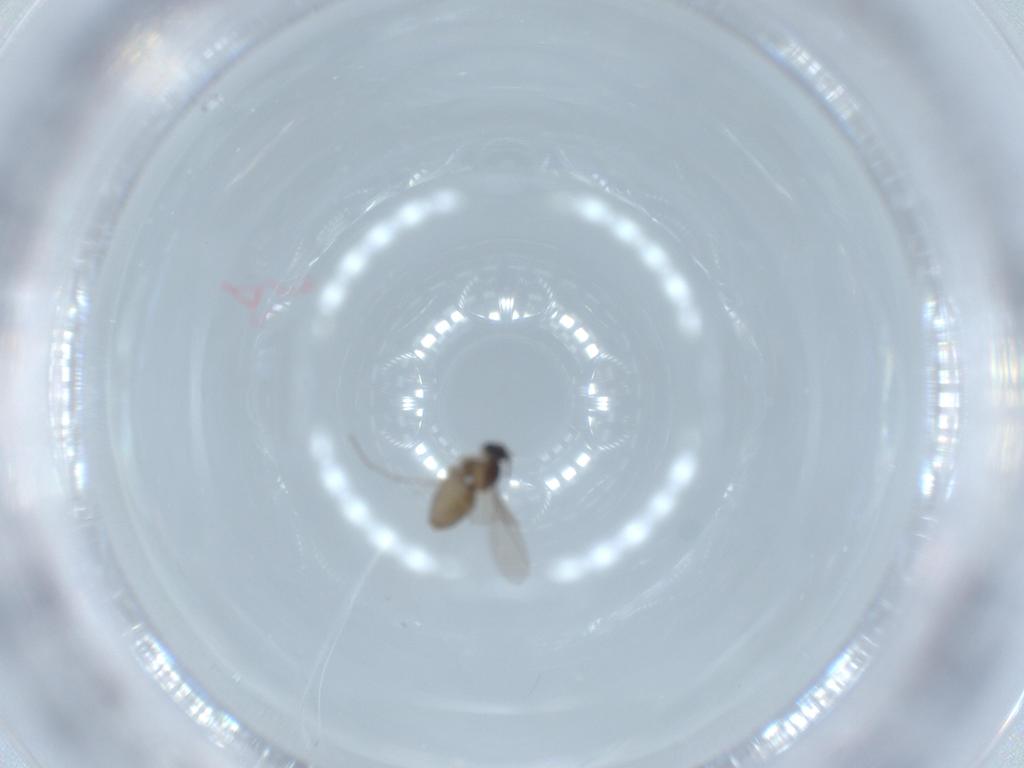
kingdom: Animalia
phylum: Arthropoda
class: Insecta
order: Diptera
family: Cecidomyiidae
